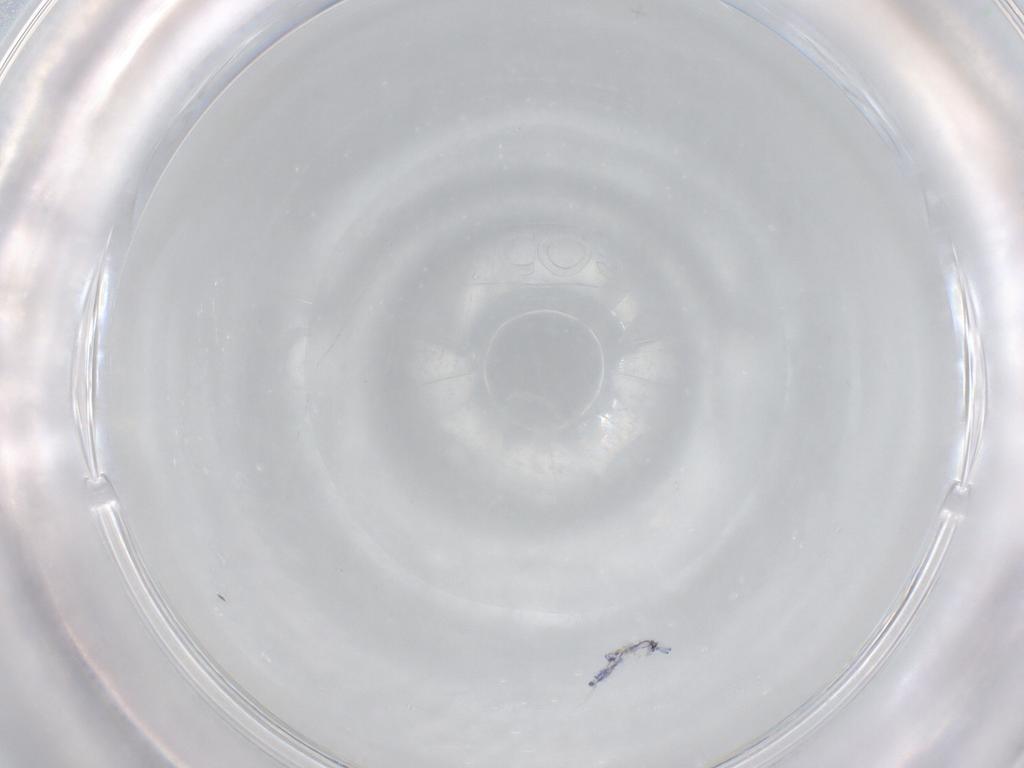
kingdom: Animalia
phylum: Arthropoda
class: Collembola
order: Entomobryomorpha
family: Entomobryidae
